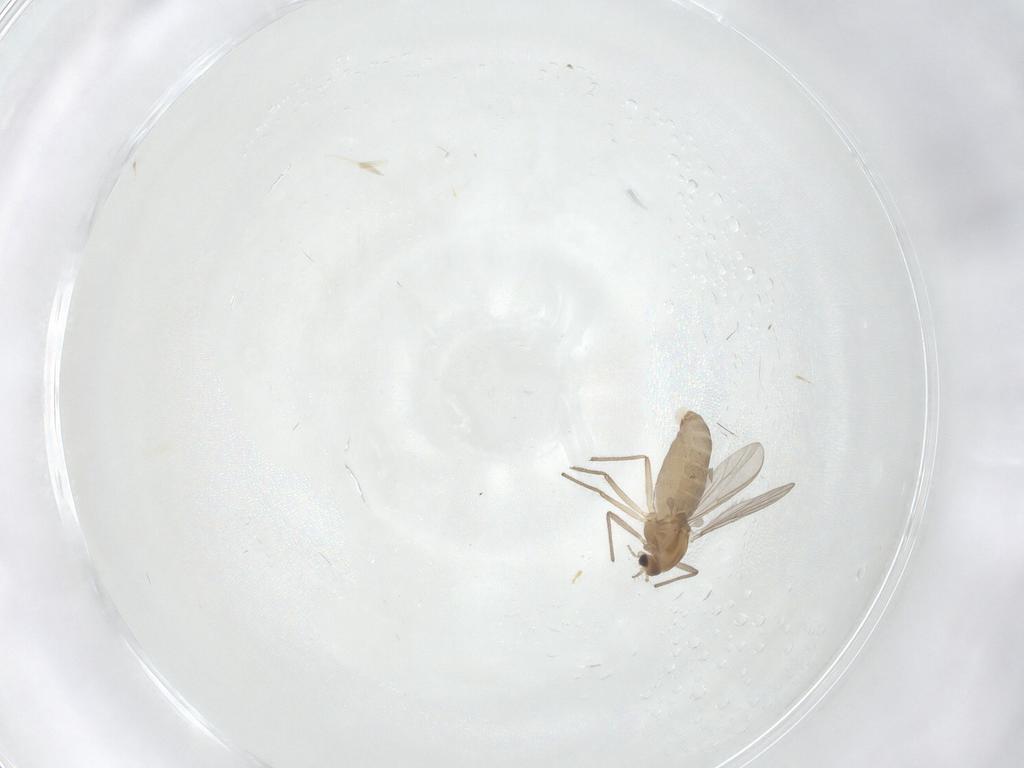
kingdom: Animalia
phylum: Arthropoda
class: Insecta
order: Diptera
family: Chironomidae
